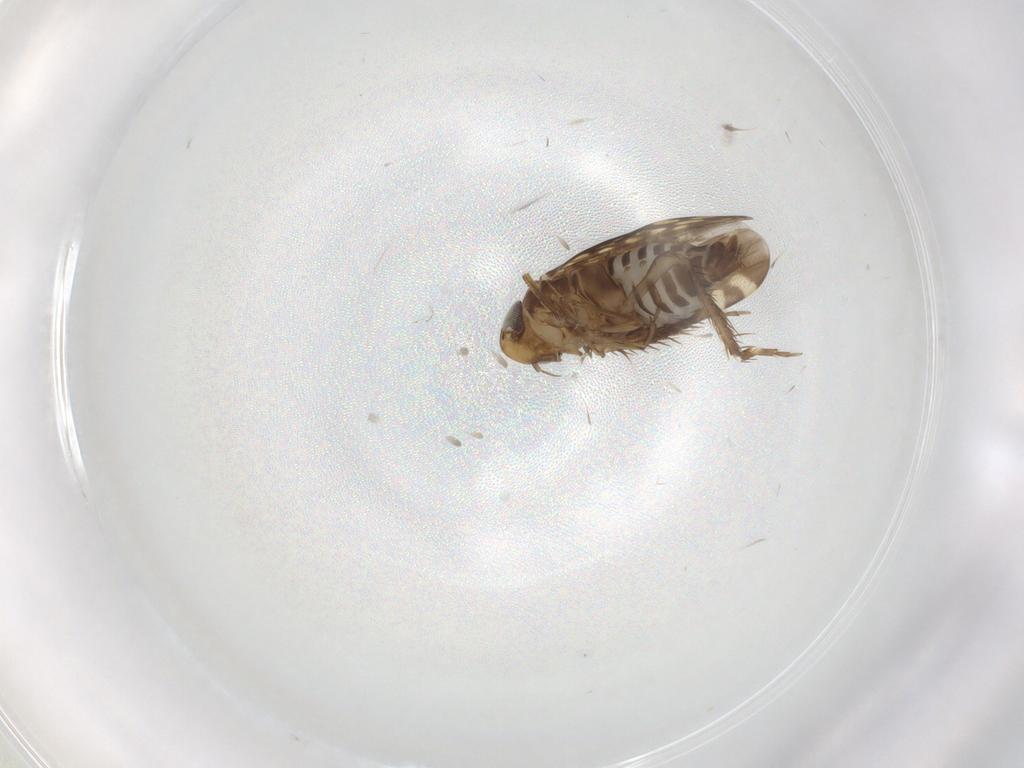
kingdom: Animalia
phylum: Arthropoda
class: Insecta
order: Hemiptera
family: Cicadellidae
